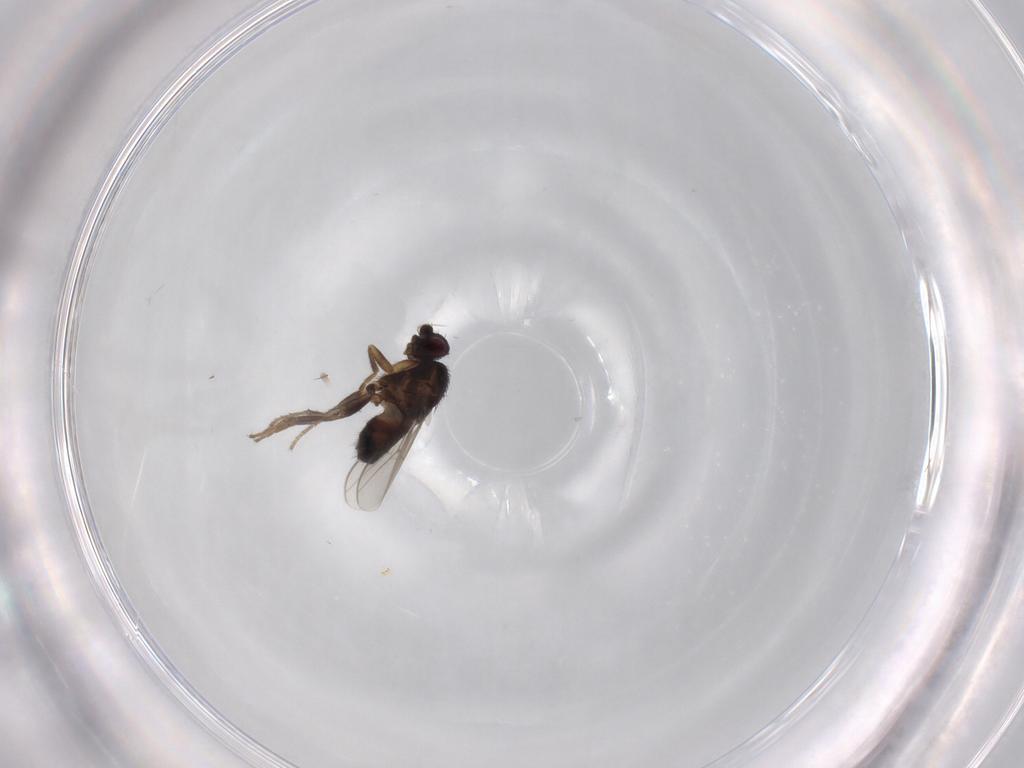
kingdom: Animalia
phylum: Arthropoda
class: Insecta
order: Diptera
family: Sphaeroceridae
